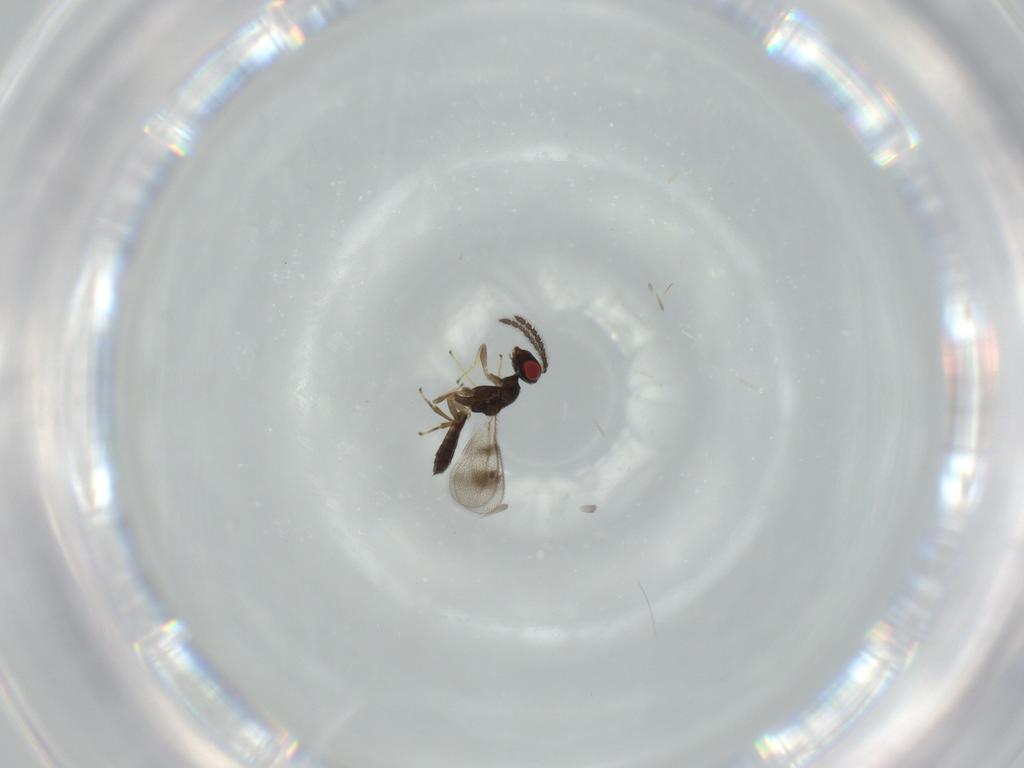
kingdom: Animalia
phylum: Arthropoda
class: Insecta
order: Hymenoptera
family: Pteromalidae
